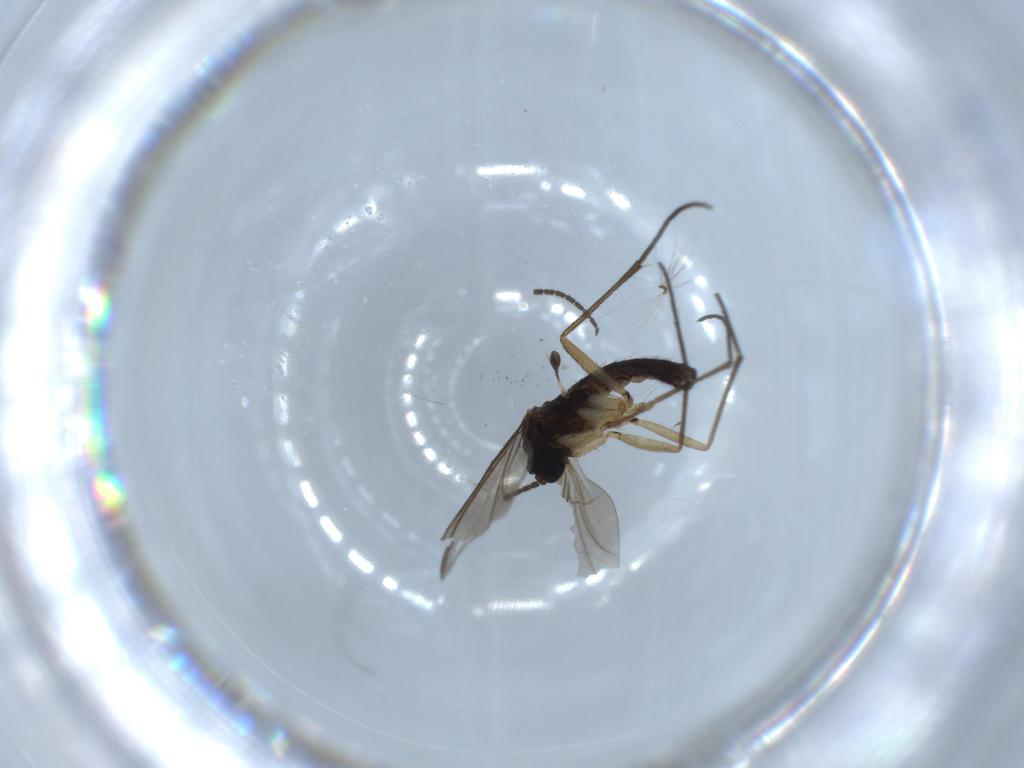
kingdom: Animalia
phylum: Arthropoda
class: Insecta
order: Diptera
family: Sciaridae
